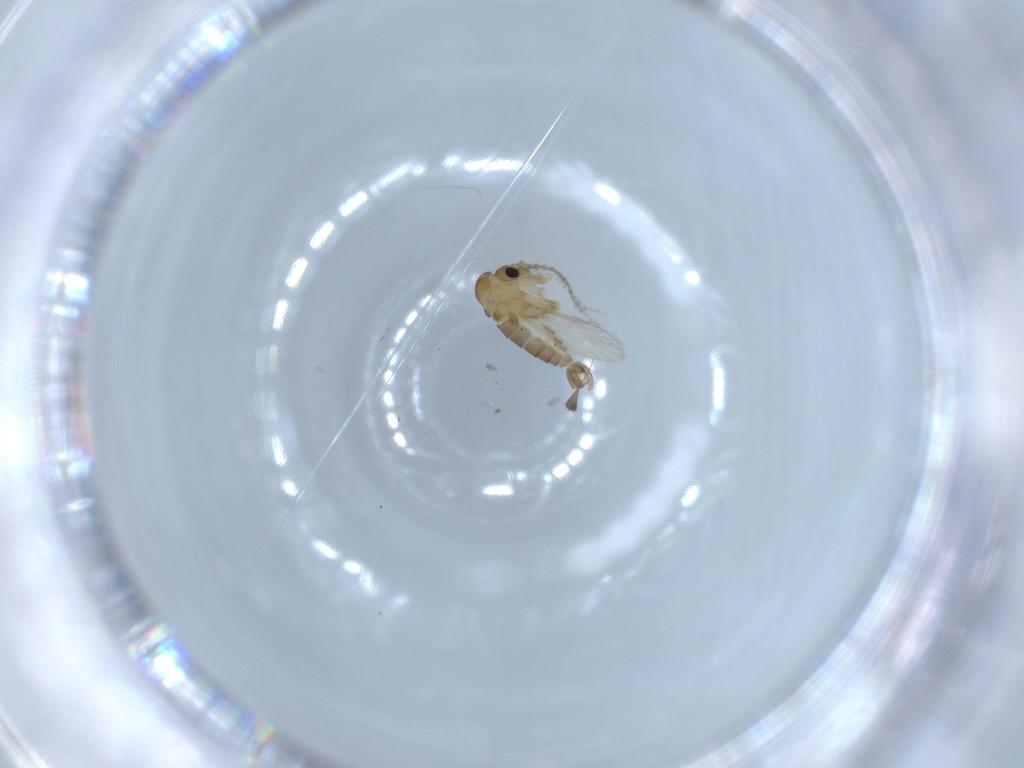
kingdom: Animalia
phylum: Arthropoda
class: Insecta
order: Diptera
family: Psychodidae
